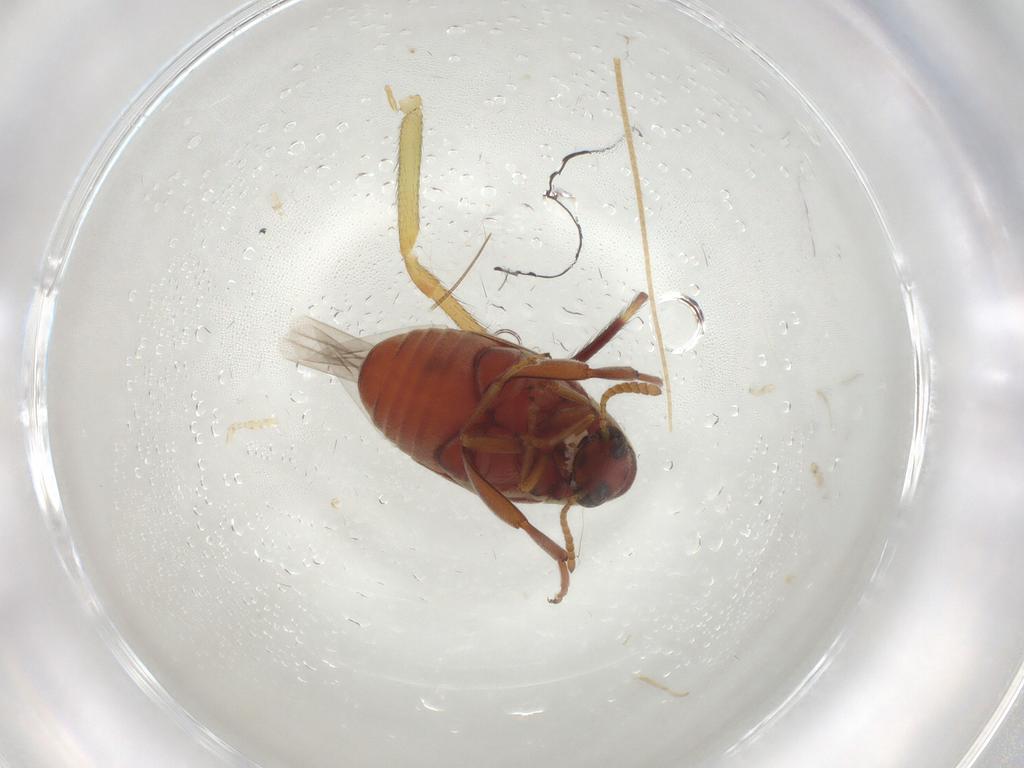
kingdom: Animalia
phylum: Arthropoda
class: Insecta
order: Coleoptera
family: Chrysomelidae
